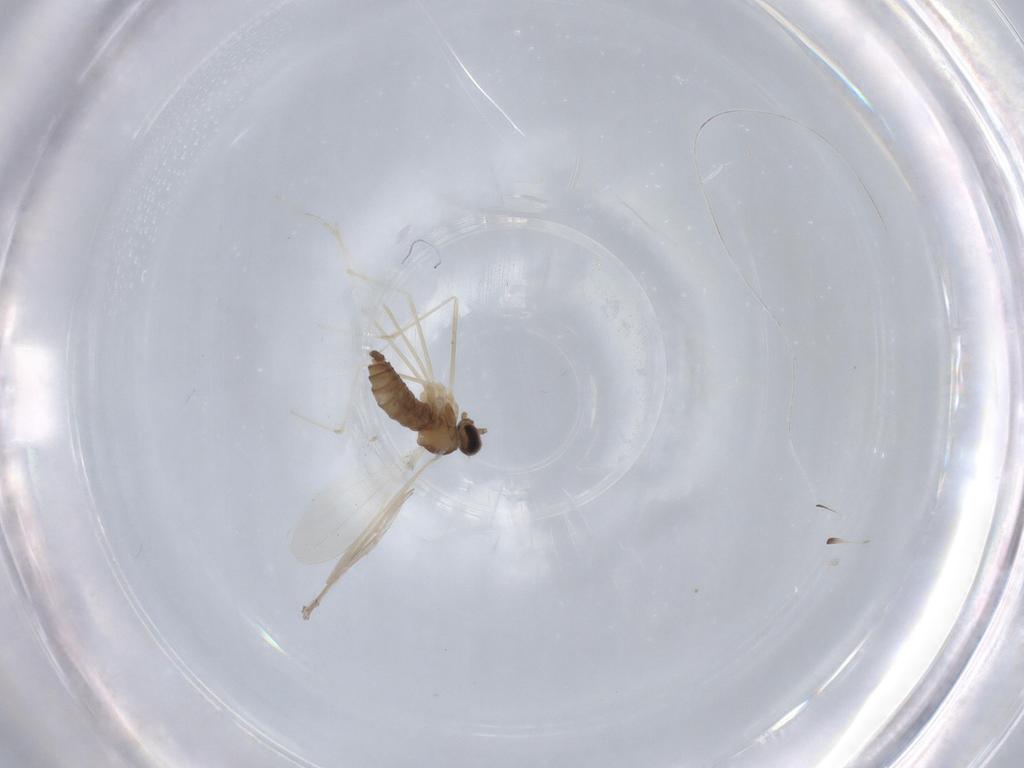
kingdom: Animalia
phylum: Arthropoda
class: Insecta
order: Diptera
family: Cecidomyiidae
